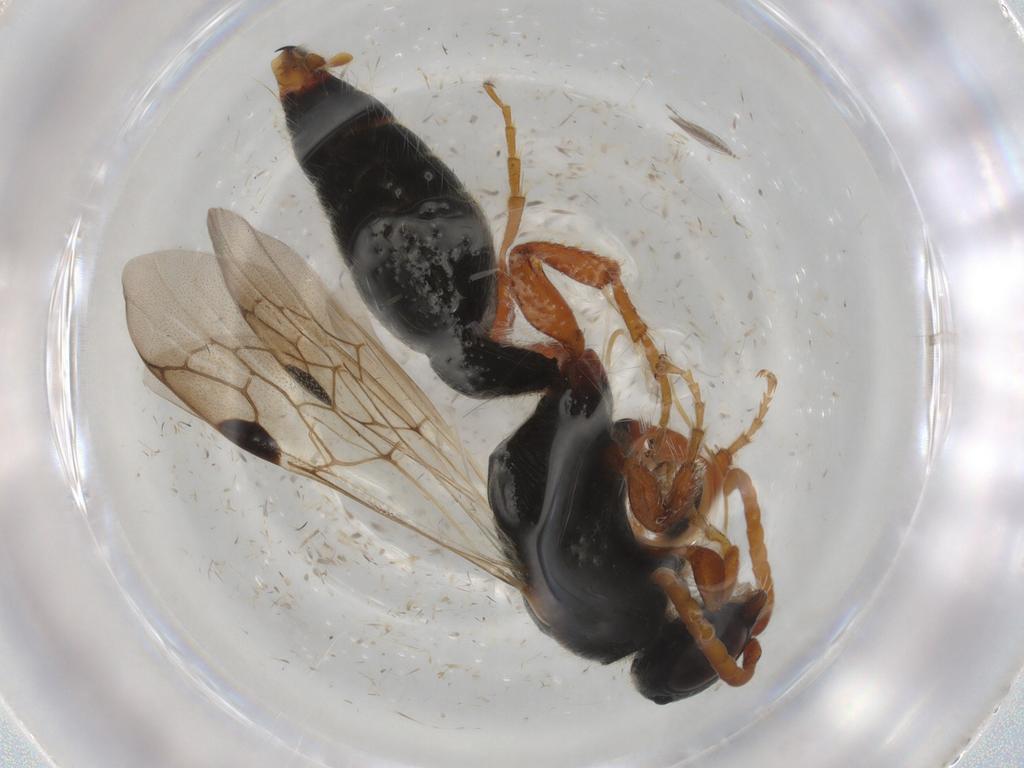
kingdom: Animalia
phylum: Arthropoda
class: Insecta
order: Hymenoptera
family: Tiphiidae
